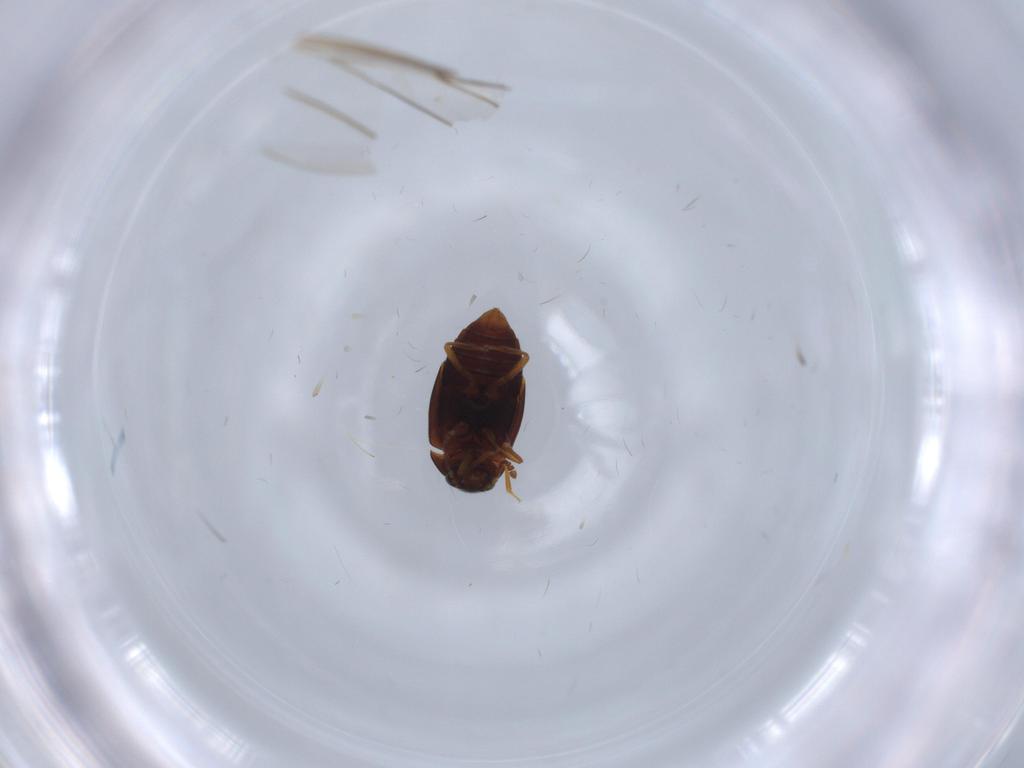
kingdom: Animalia
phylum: Arthropoda
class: Insecta
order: Coleoptera
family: Staphylinidae
